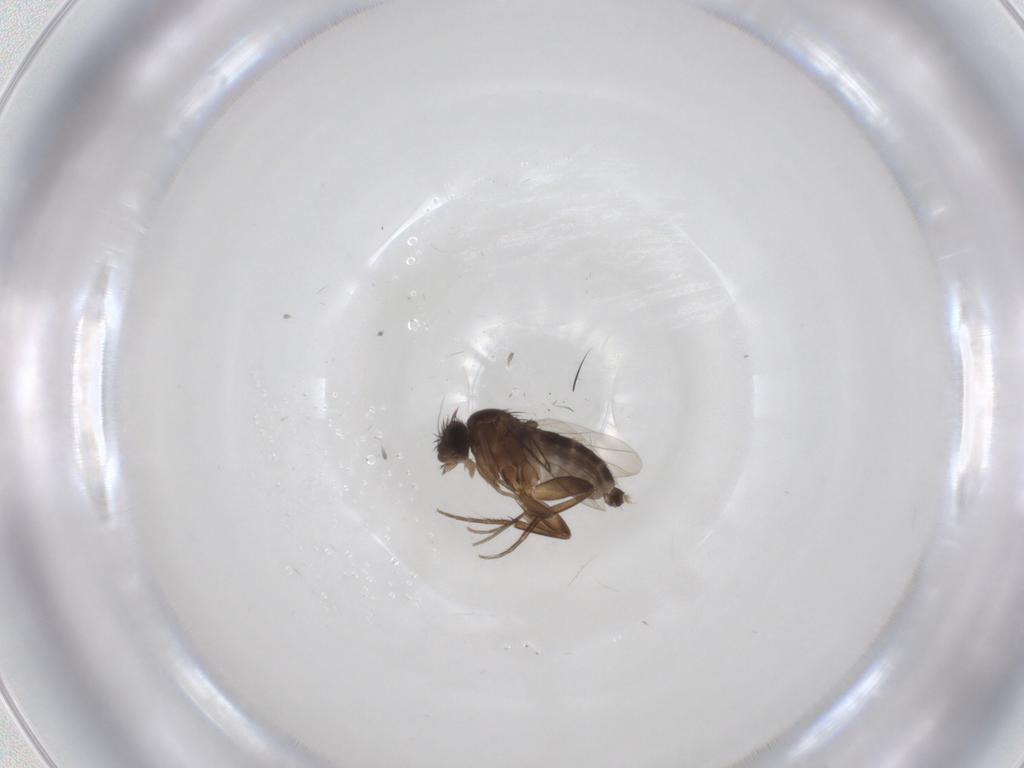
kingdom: Animalia
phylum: Arthropoda
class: Insecta
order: Diptera
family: Phoridae
